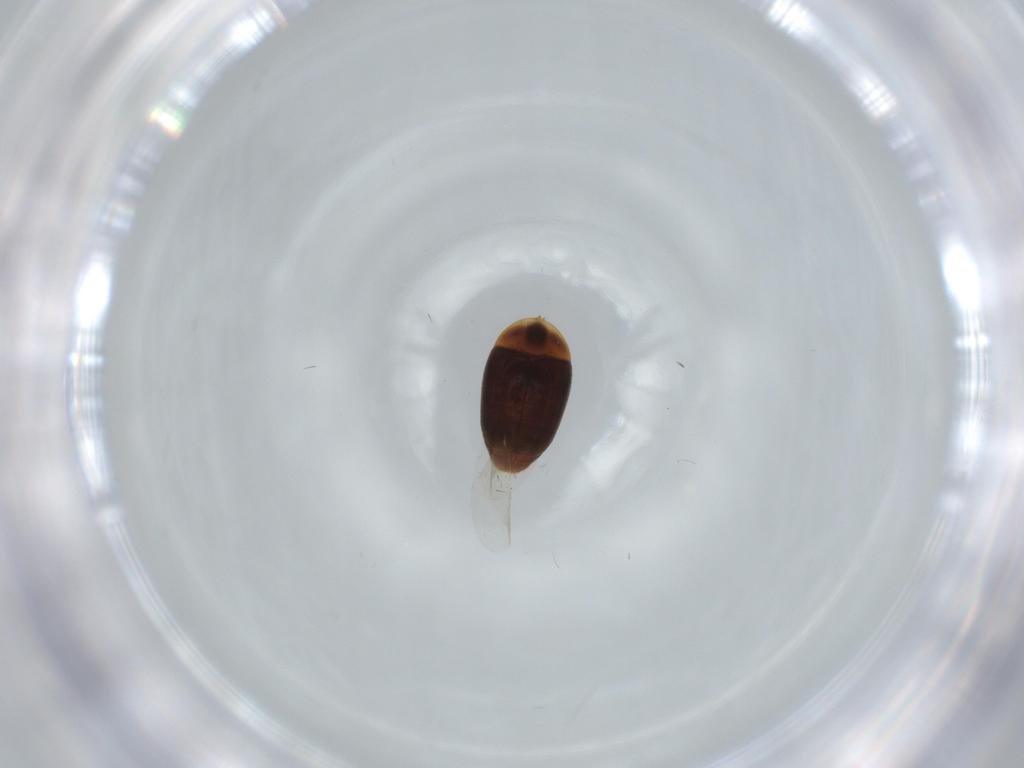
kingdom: Animalia
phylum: Arthropoda
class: Insecta
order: Coleoptera
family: Corylophidae
